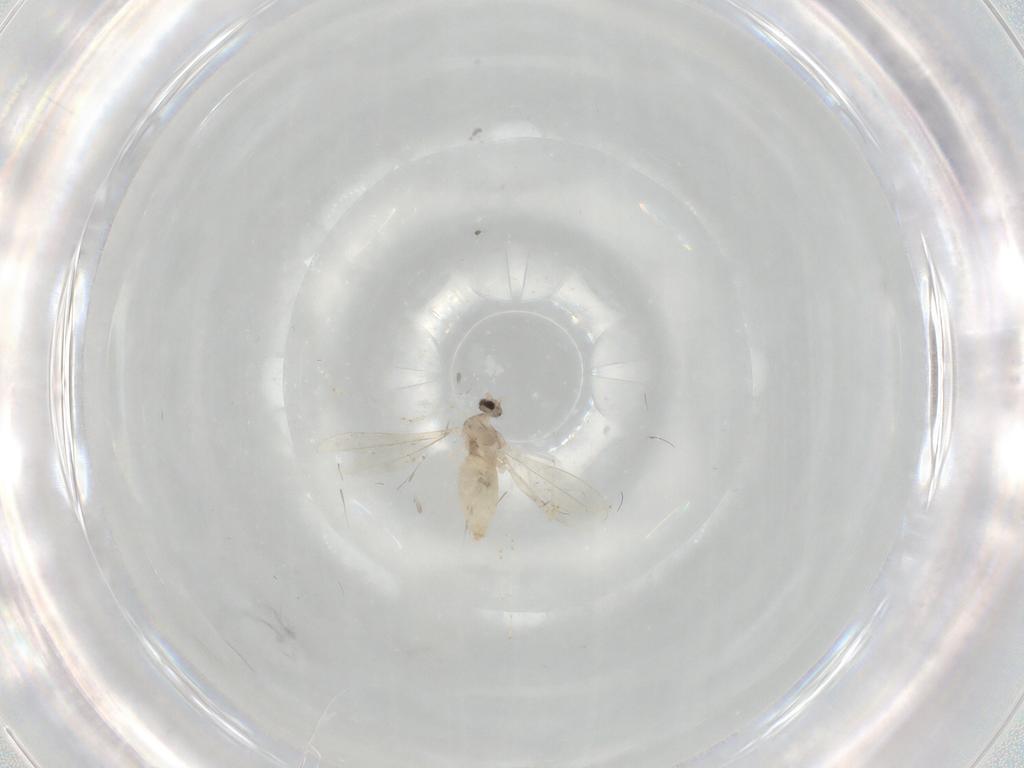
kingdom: Animalia
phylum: Arthropoda
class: Insecta
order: Diptera
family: Cecidomyiidae
